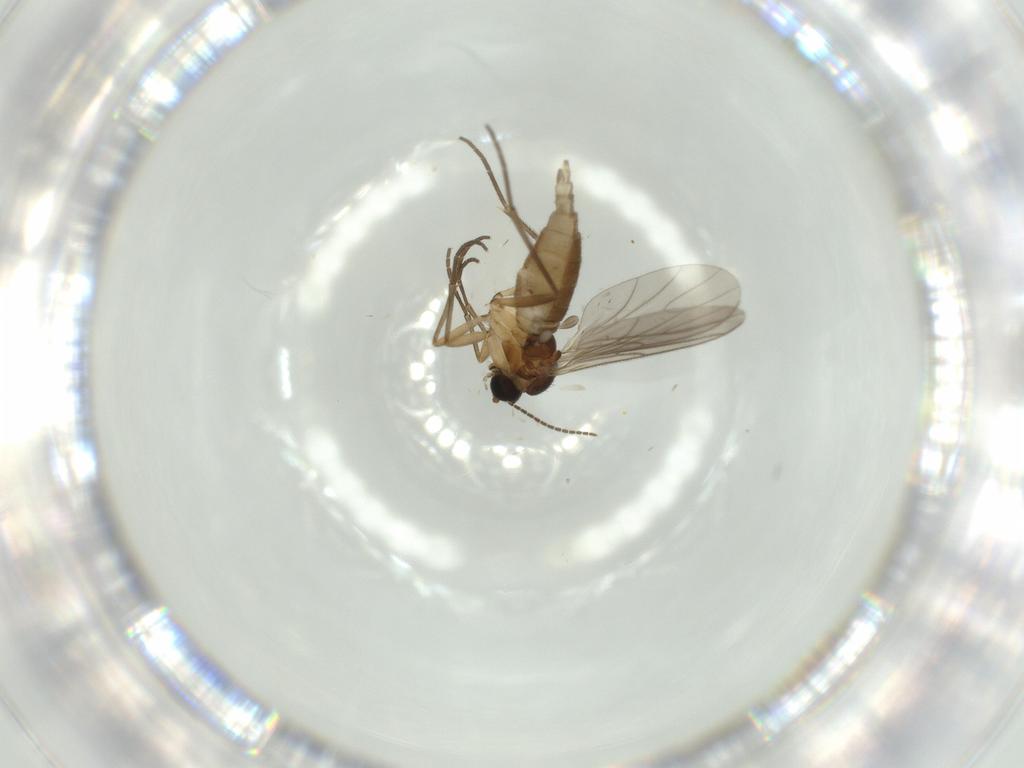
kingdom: Animalia
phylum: Arthropoda
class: Insecta
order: Diptera
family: Sciaridae
